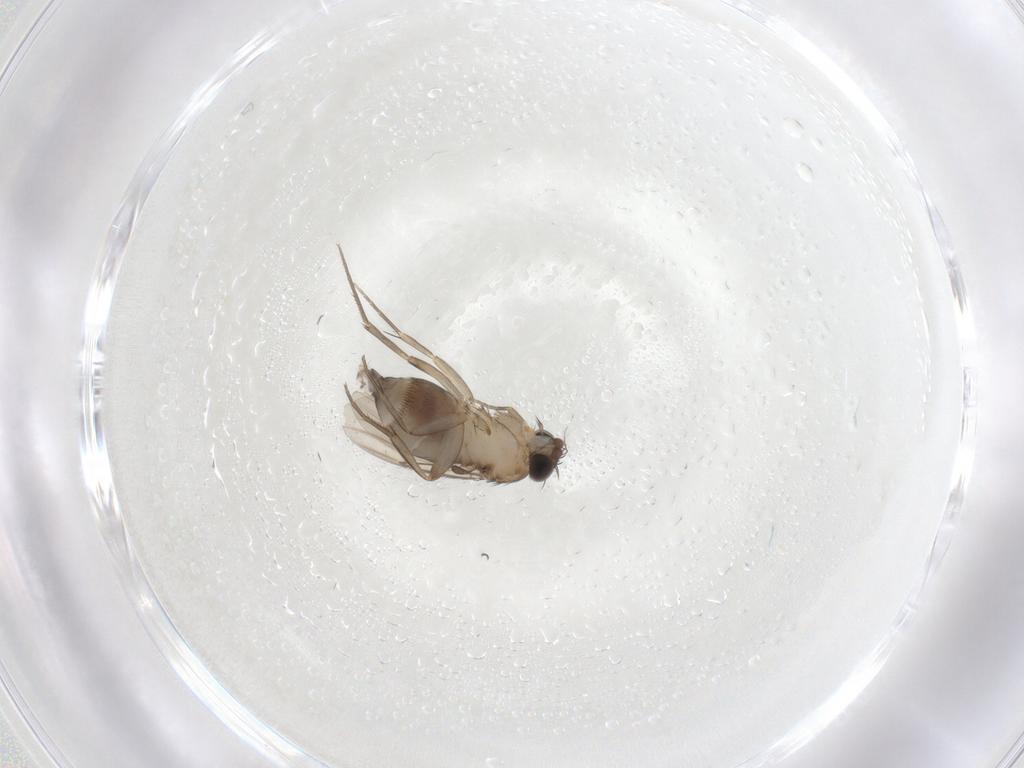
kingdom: Animalia
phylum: Arthropoda
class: Insecta
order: Diptera
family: Phoridae
